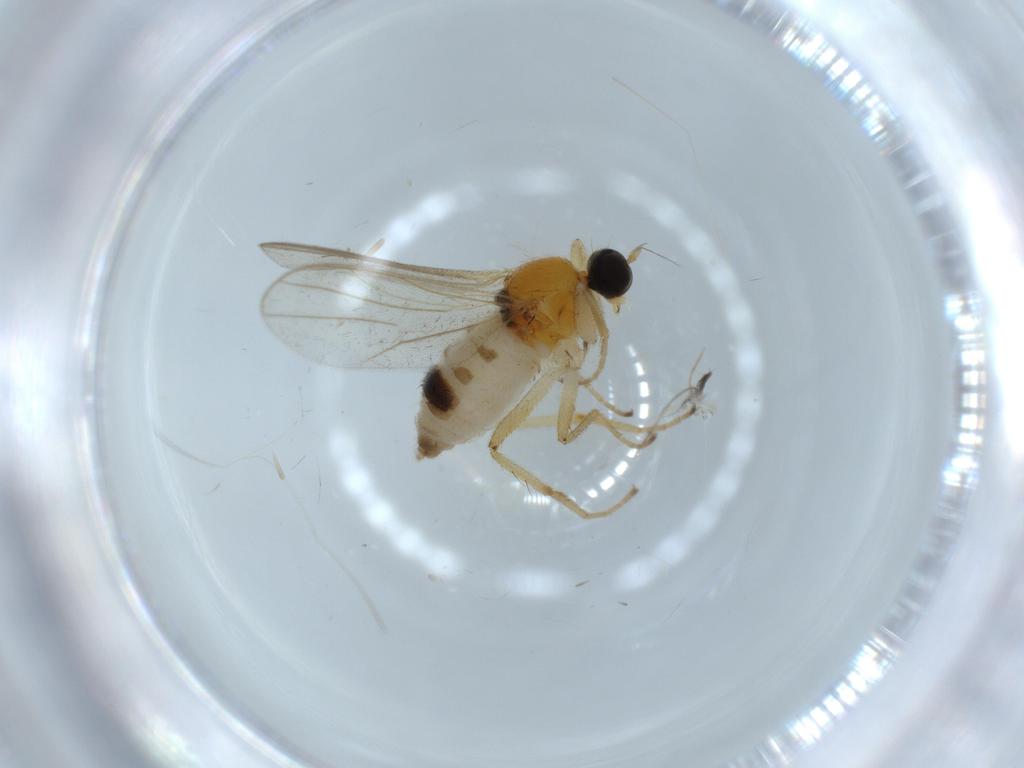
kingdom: Animalia
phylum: Arthropoda
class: Insecta
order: Diptera
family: Hybotidae
